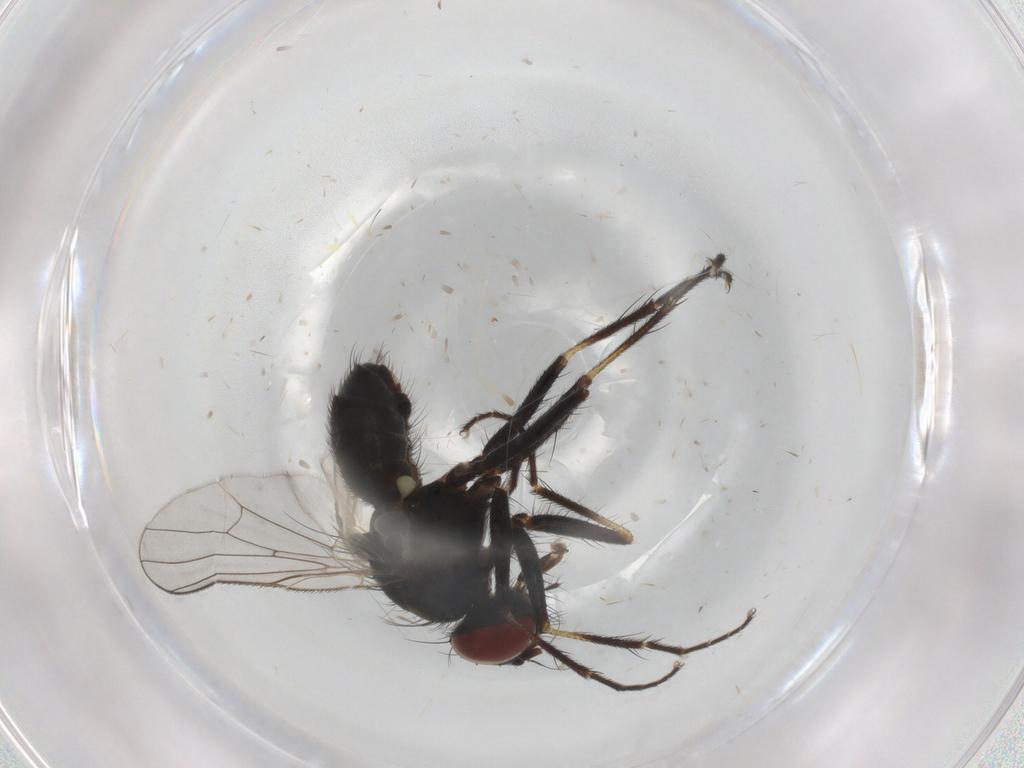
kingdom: Animalia
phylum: Arthropoda
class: Insecta
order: Diptera
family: Muscidae
